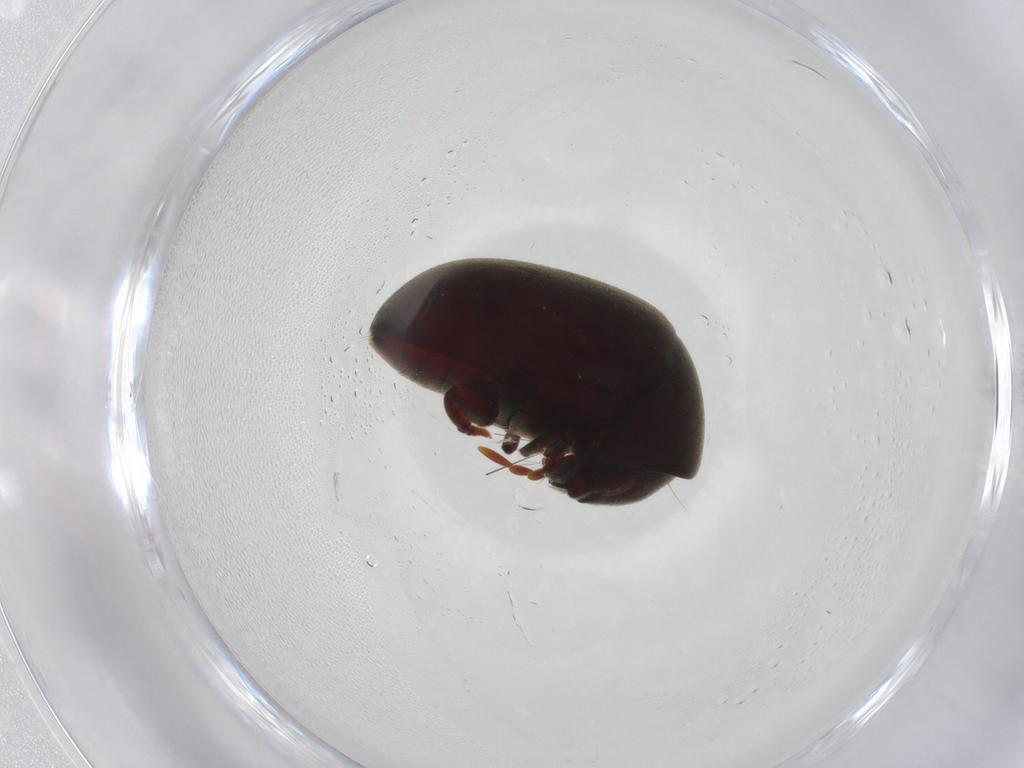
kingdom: Animalia
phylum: Arthropoda
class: Insecta
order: Coleoptera
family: Ptinidae
